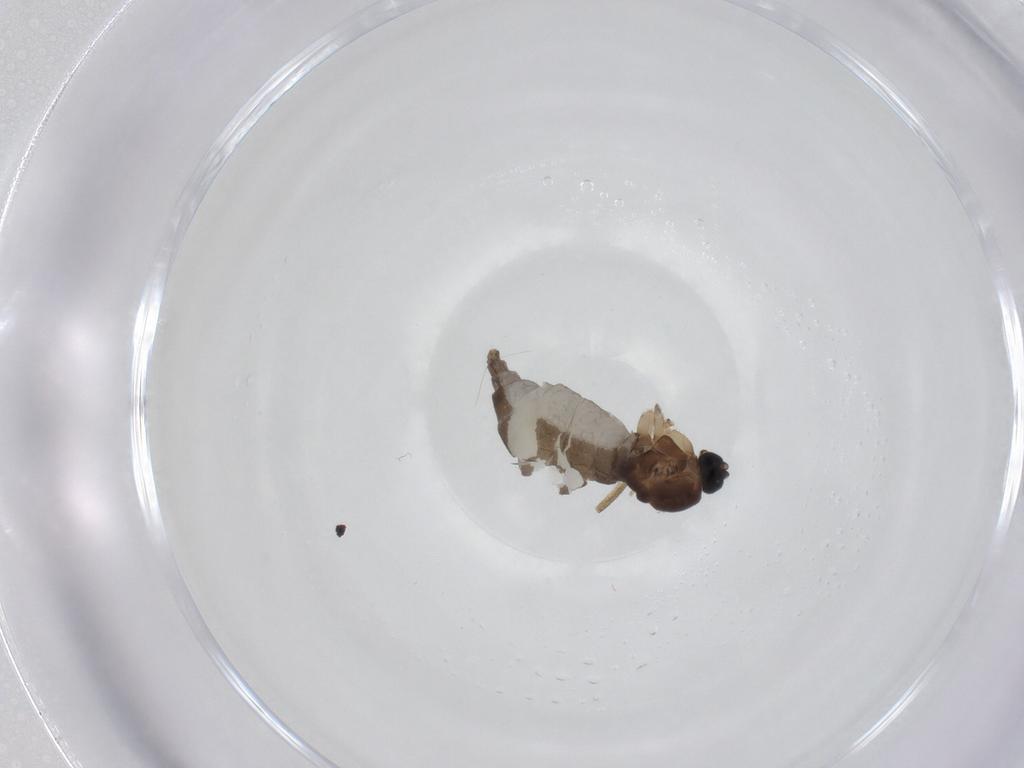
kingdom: Animalia
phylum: Arthropoda
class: Insecta
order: Diptera
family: Sciaridae
